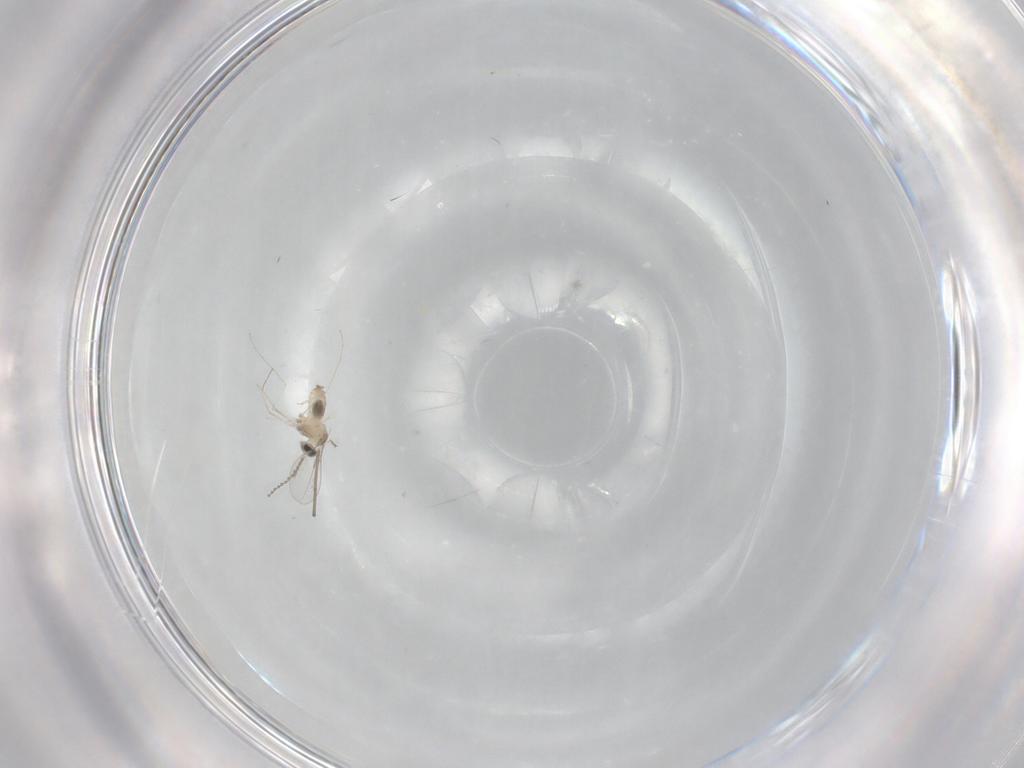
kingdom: Animalia
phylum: Arthropoda
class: Insecta
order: Diptera
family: Cecidomyiidae
